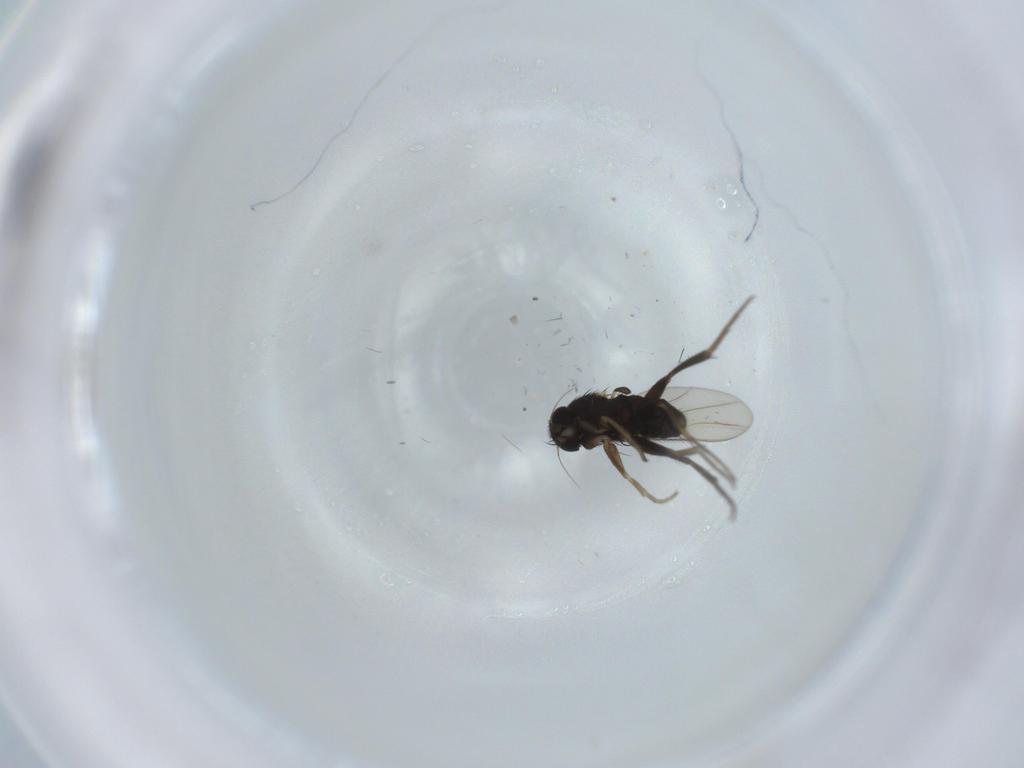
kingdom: Animalia
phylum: Arthropoda
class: Insecta
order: Diptera
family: Phoridae
